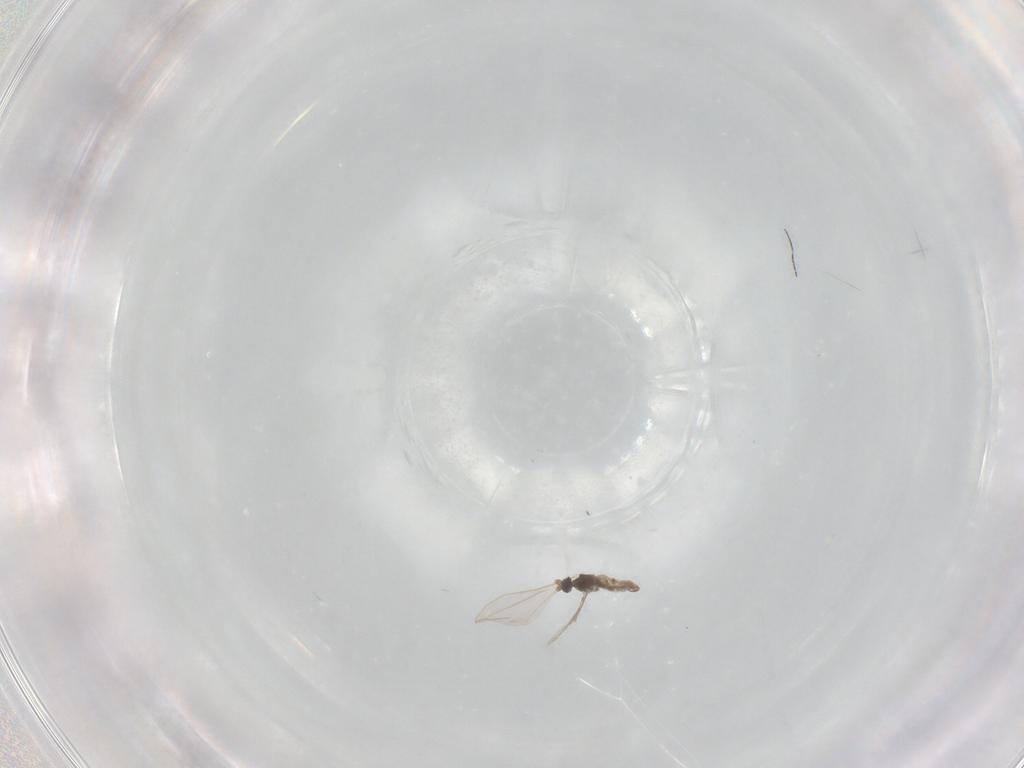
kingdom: Animalia
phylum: Arthropoda
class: Insecta
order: Diptera
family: Cecidomyiidae
